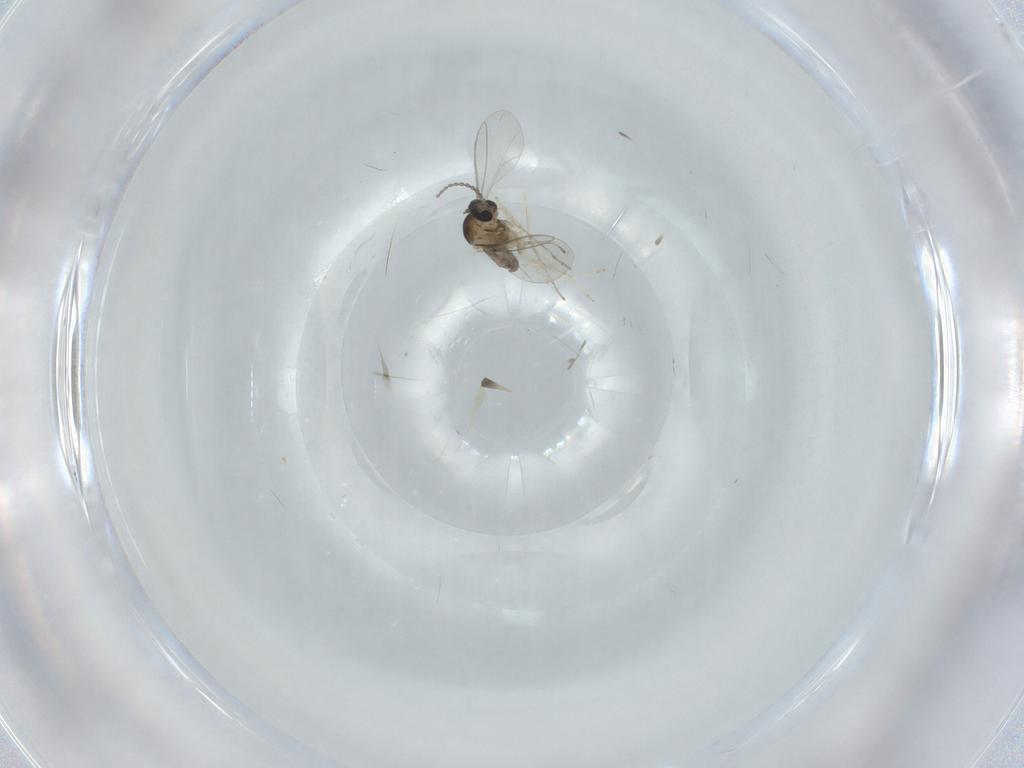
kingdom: Animalia
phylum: Arthropoda
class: Insecta
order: Diptera
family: Cecidomyiidae
